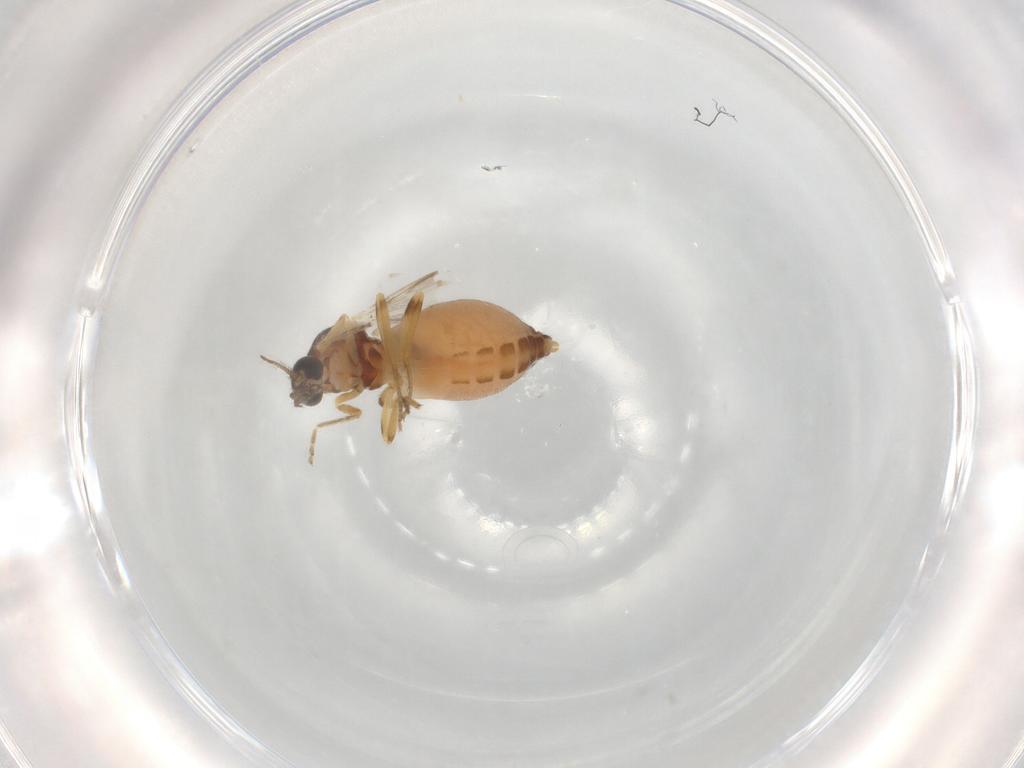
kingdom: Animalia
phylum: Arthropoda
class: Insecta
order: Diptera
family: Ceratopogonidae
